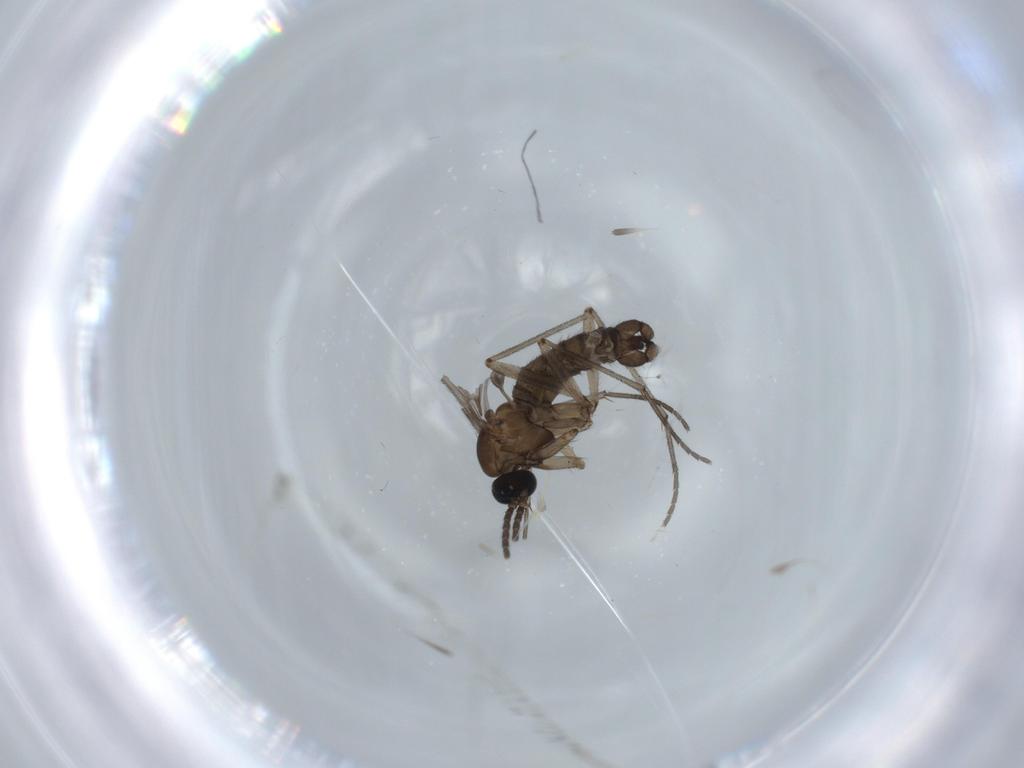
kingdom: Animalia
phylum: Arthropoda
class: Insecta
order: Diptera
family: Sciaridae
